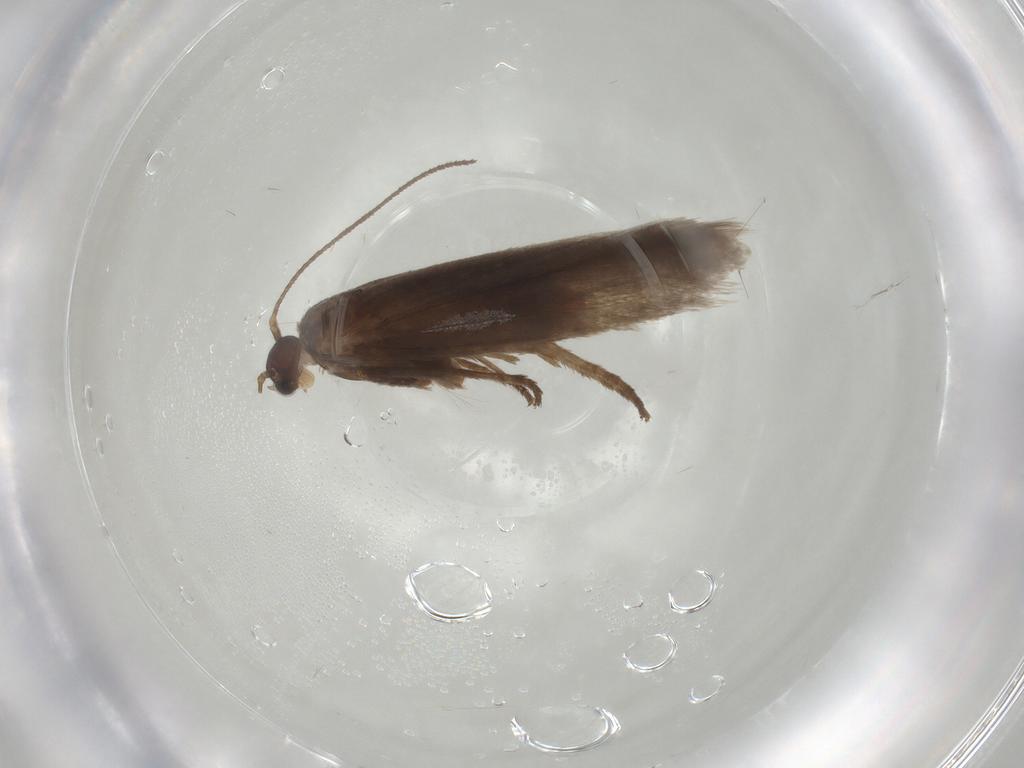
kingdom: Animalia
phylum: Arthropoda
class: Insecta
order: Lepidoptera
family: Limacodidae
